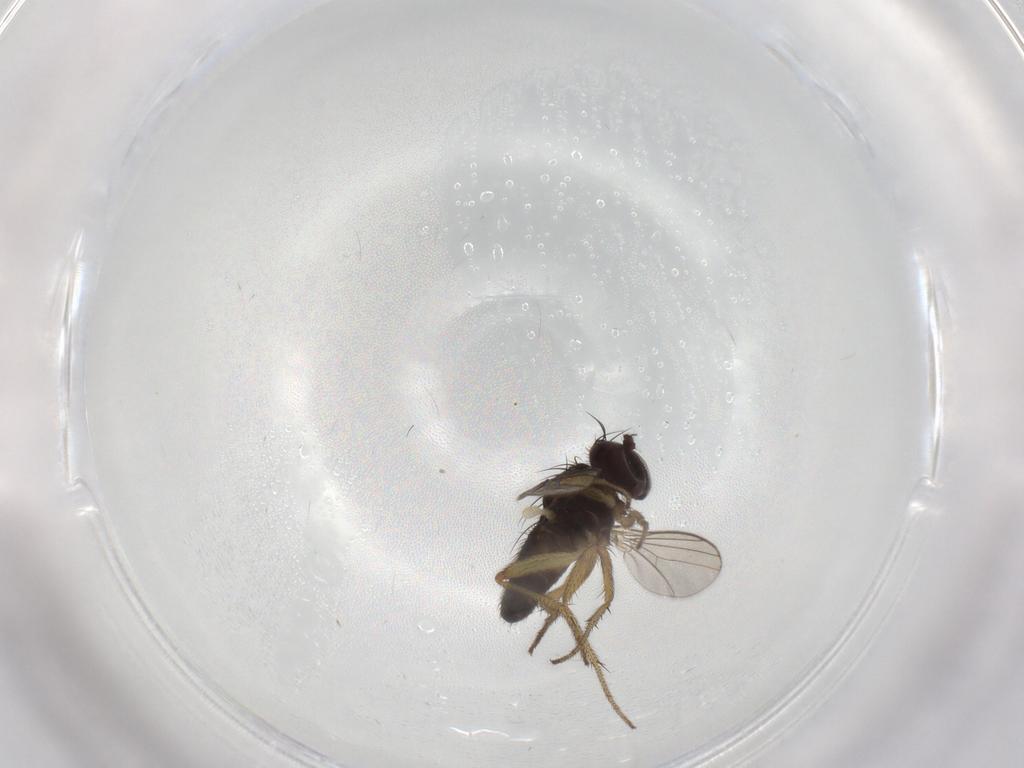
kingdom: Animalia
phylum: Arthropoda
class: Insecta
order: Diptera
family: Dolichopodidae
